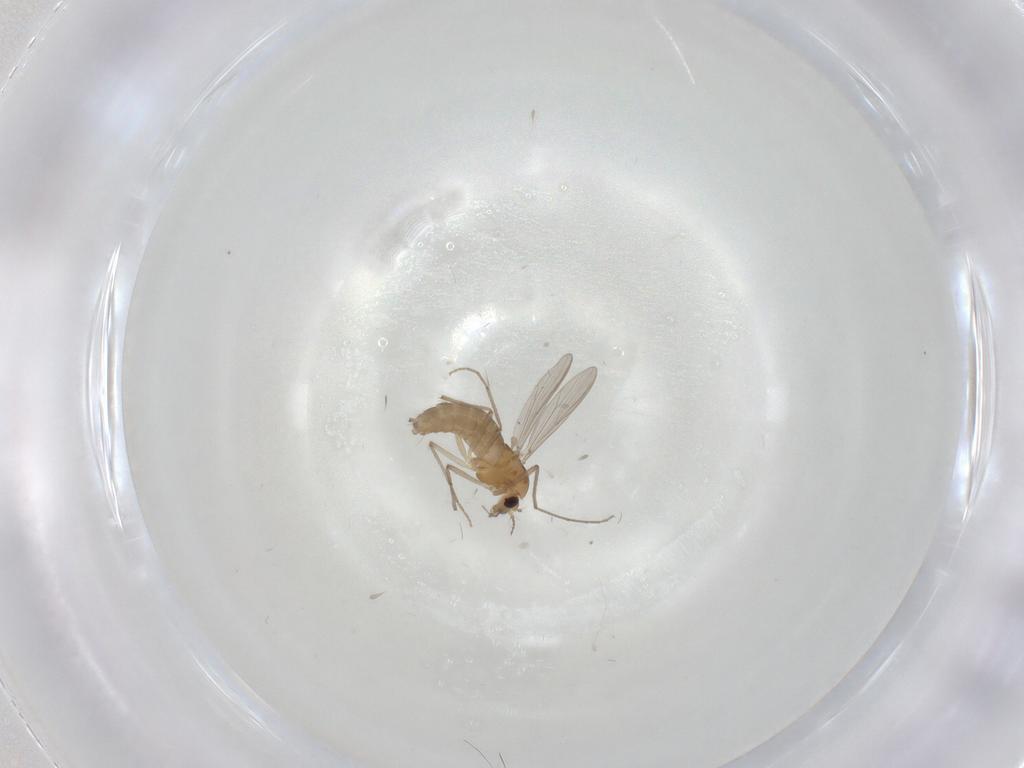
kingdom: Animalia
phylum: Arthropoda
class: Insecta
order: Diptera
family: Chironomidae
